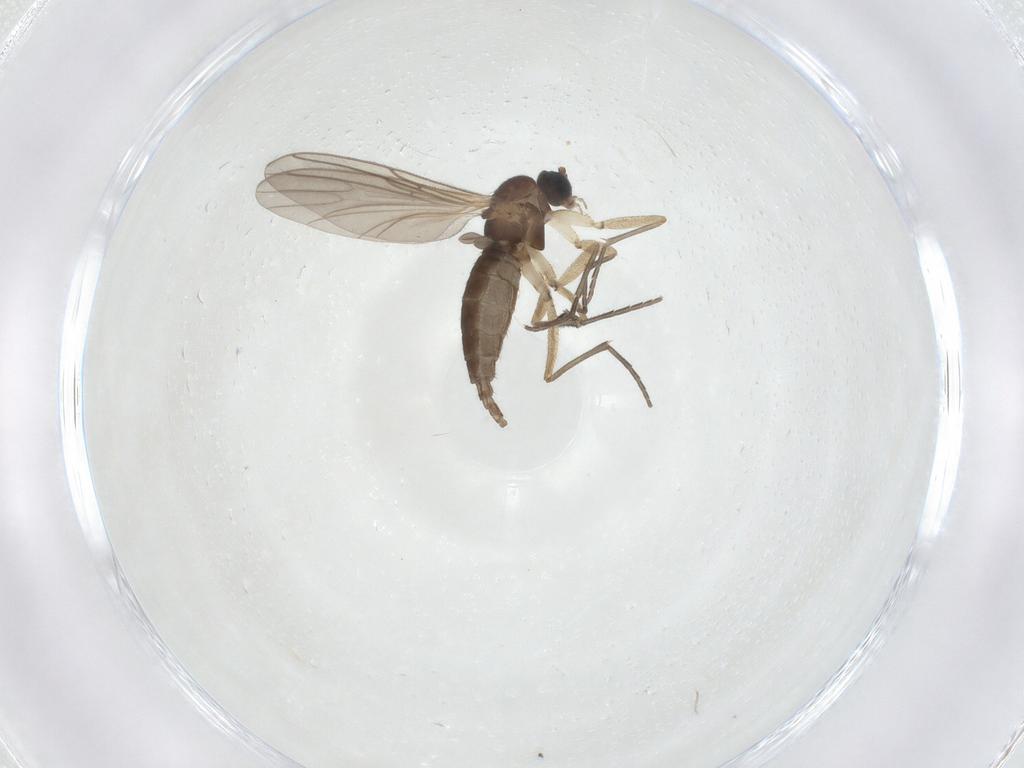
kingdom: Animalia
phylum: Arthropoda
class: Insecta
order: Diptera
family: Sciaridae
